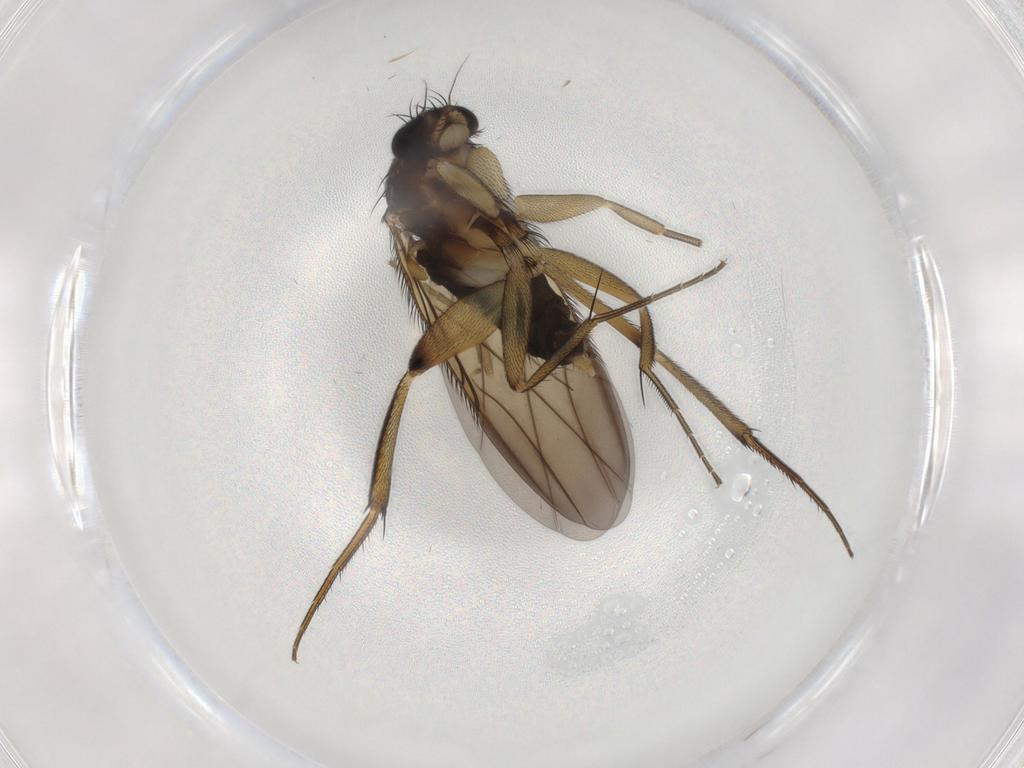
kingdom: Animalia
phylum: Arthropoda
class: Insecta
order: Diptera
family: Phoridae
